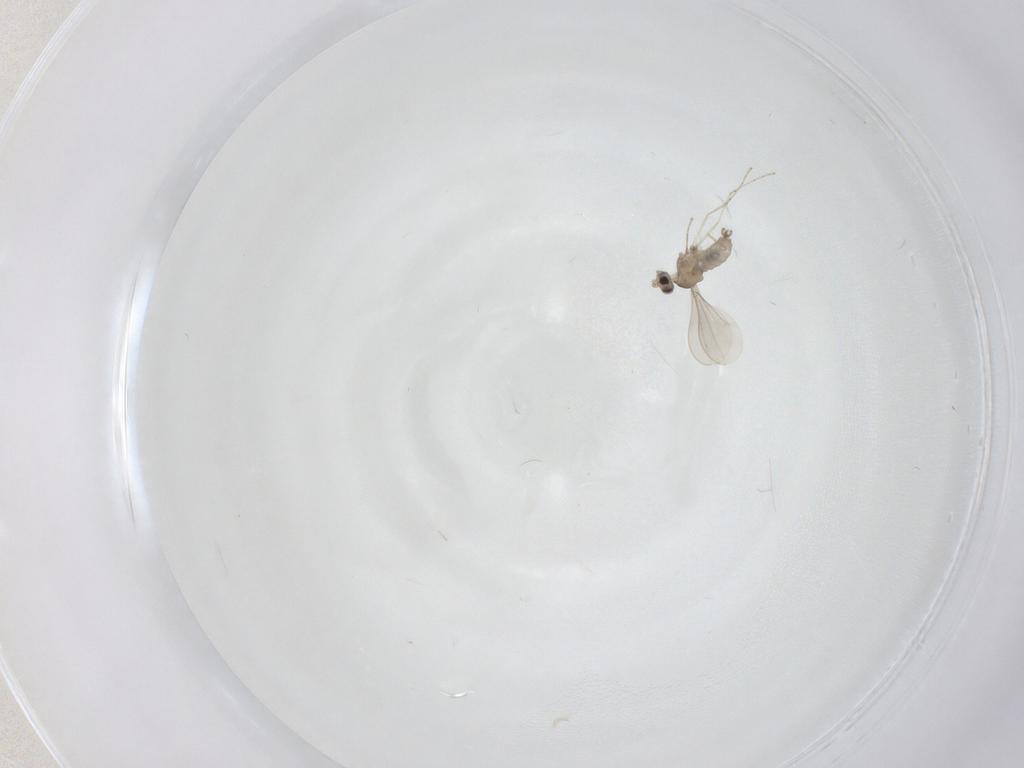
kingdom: Animalia
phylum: Arthropoda
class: Insecta
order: Diptera
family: Cecidomyiidae
